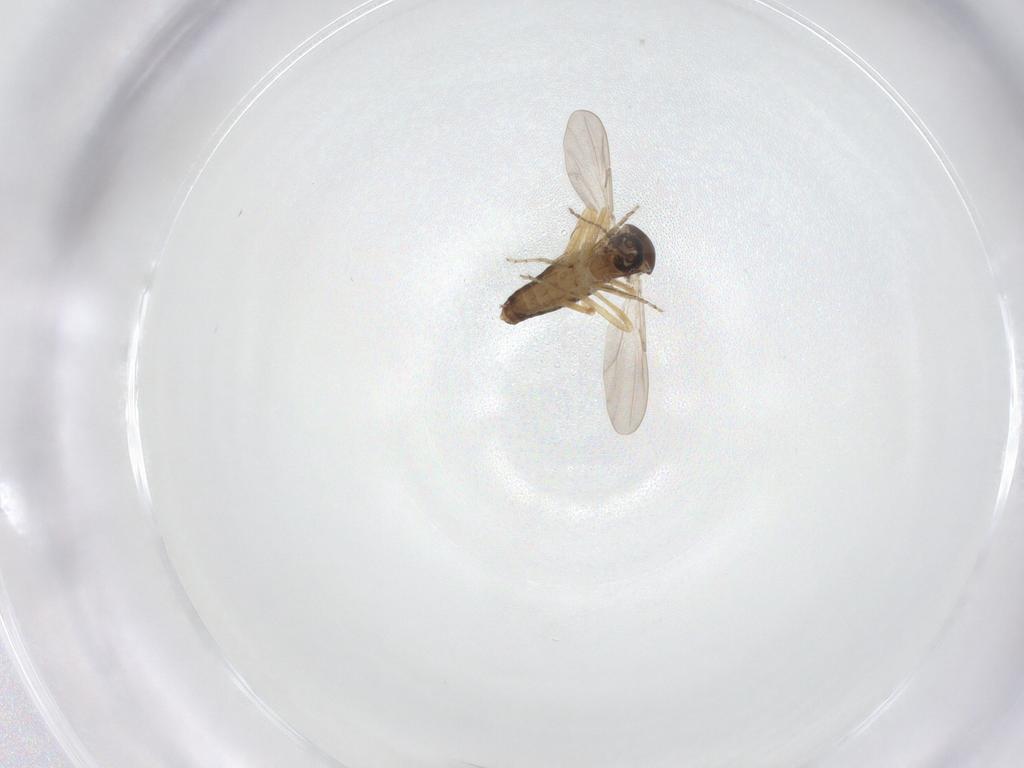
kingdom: Animalia
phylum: Arthropoda
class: Insecta
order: Diptera
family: Ceratopogonidae
